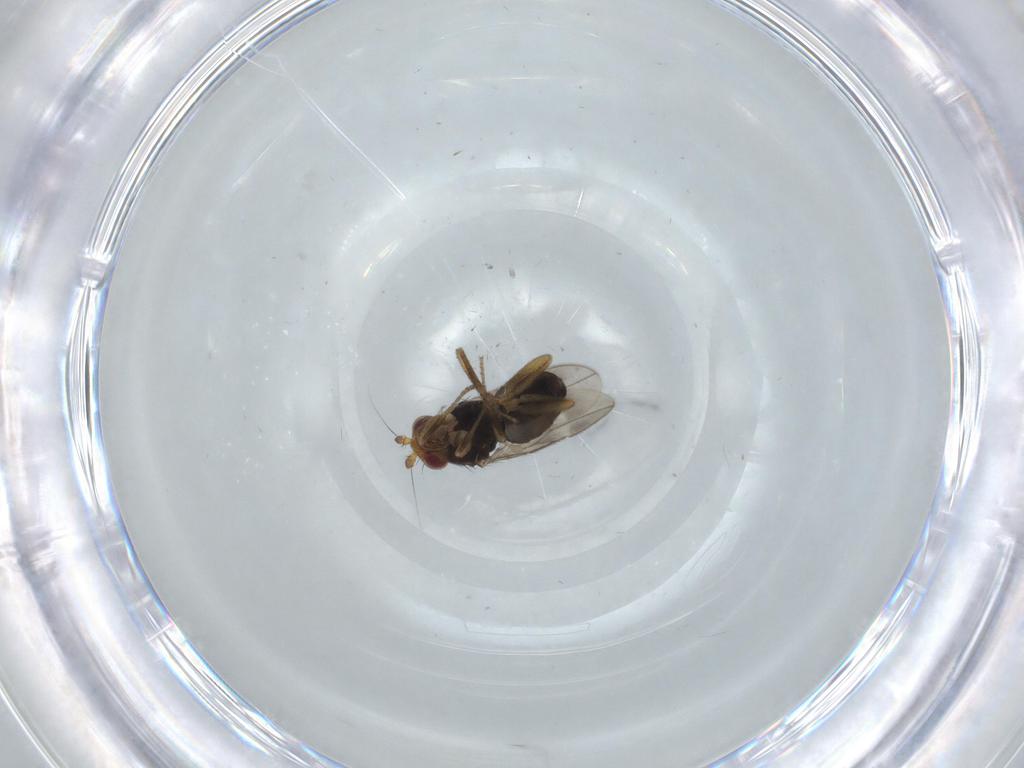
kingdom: Animalia
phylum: Arthropoda
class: Insecta
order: Diptera
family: Sphaeroceridae
